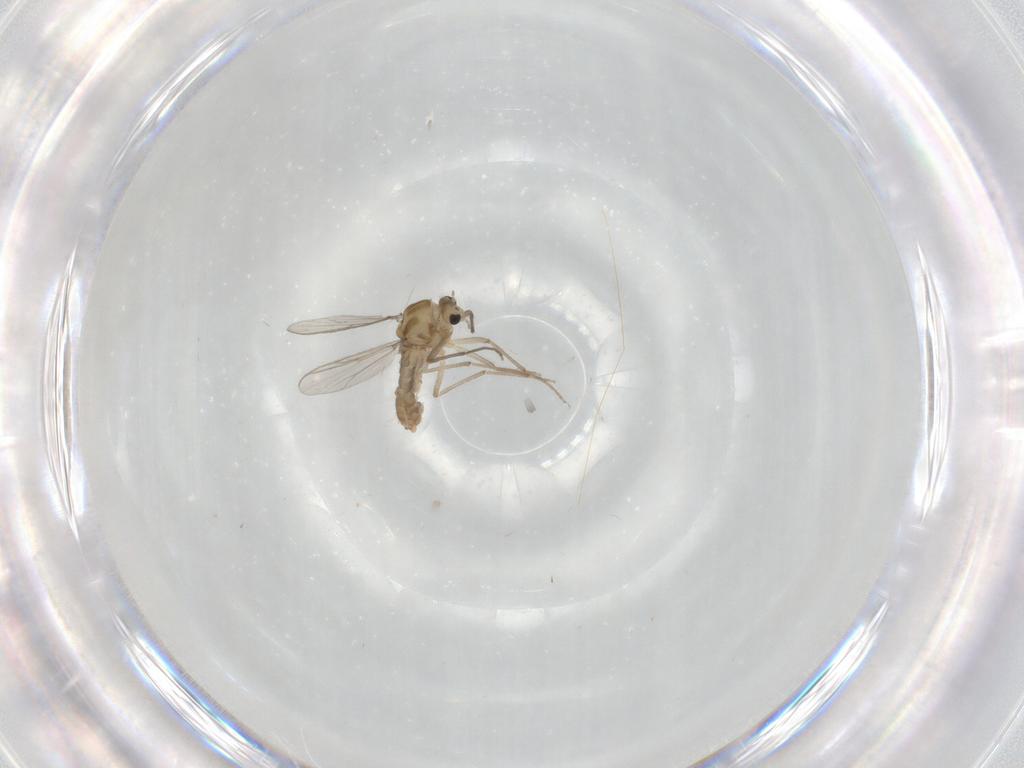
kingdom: Animalia
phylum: Arthropoda
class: Insecta
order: Diptera
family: Chironomidae
